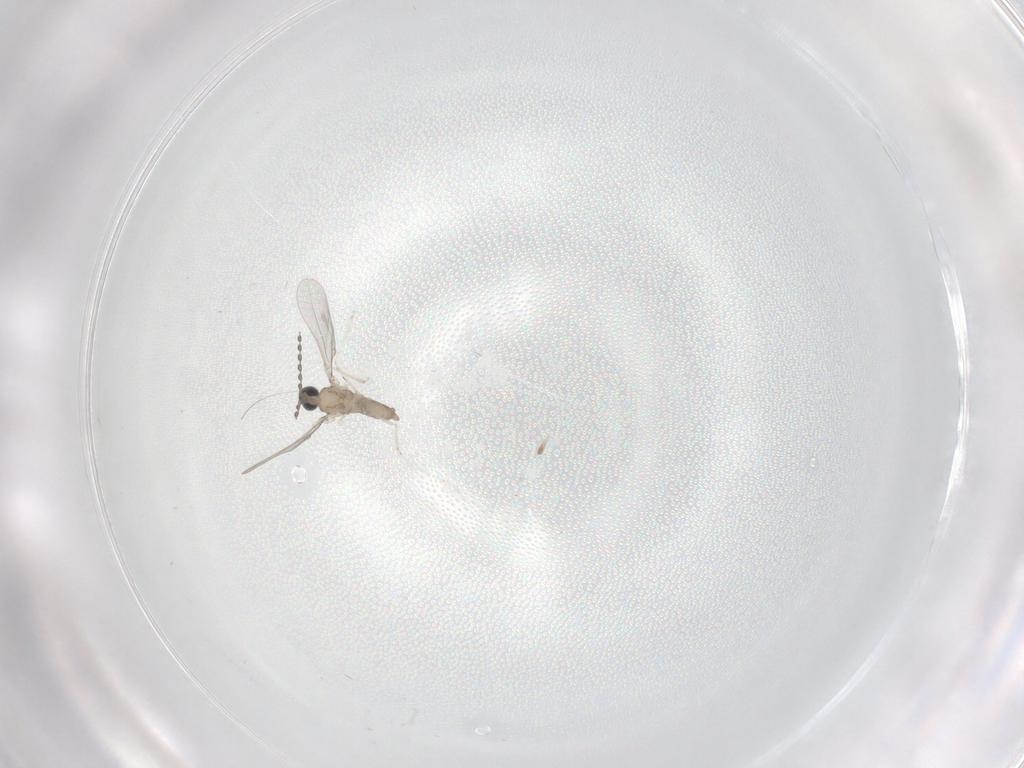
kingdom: Animalia
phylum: Arthropoda
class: Insecta
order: Diptera
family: Cecidomyiidae
